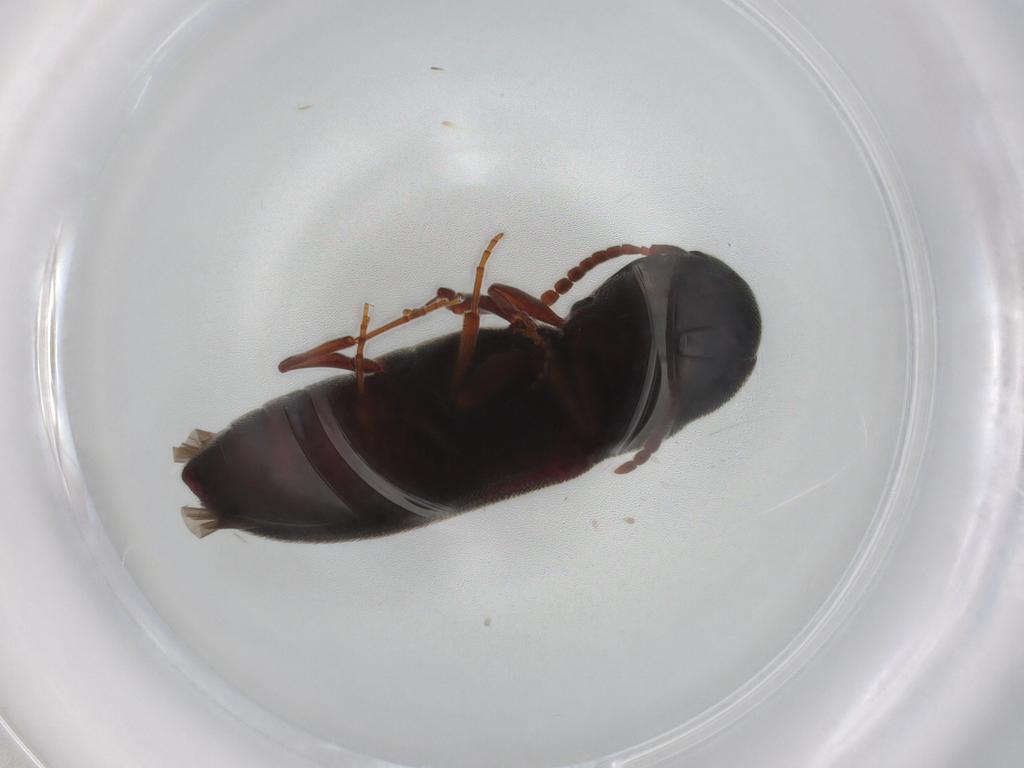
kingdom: Animalia
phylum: Arthropoda
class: Insecta
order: Coleoptera
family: Eucnemidae
